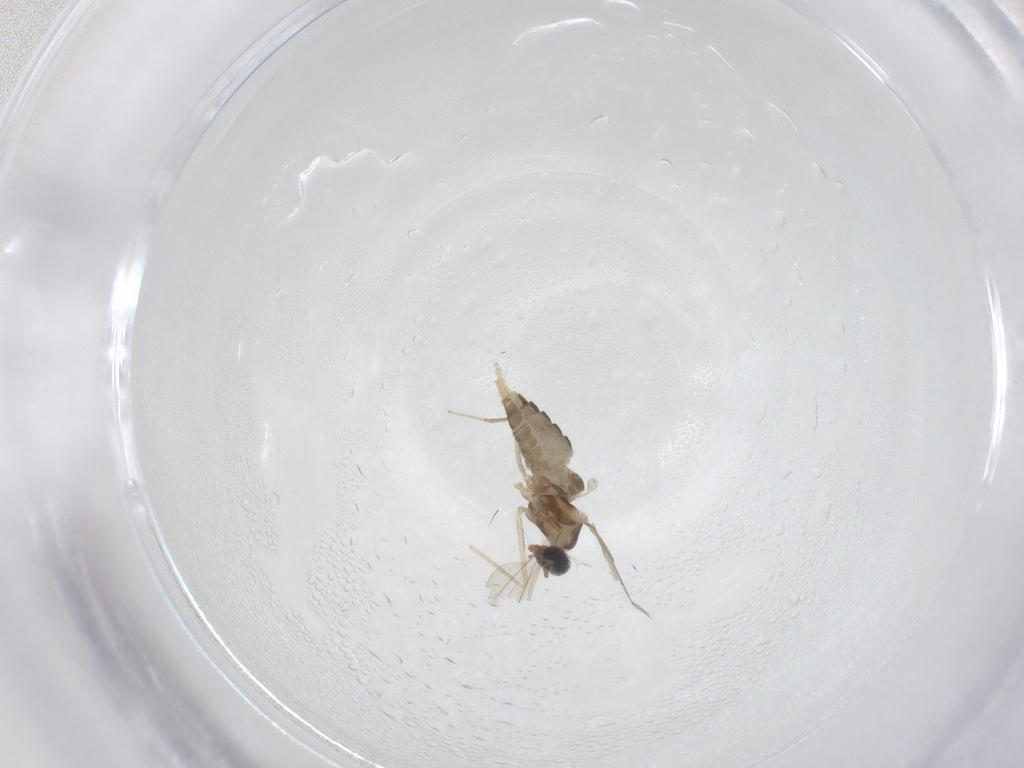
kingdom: Animalia
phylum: Arthropoda
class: Insecta
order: Diptera
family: Cecidomyiidae
